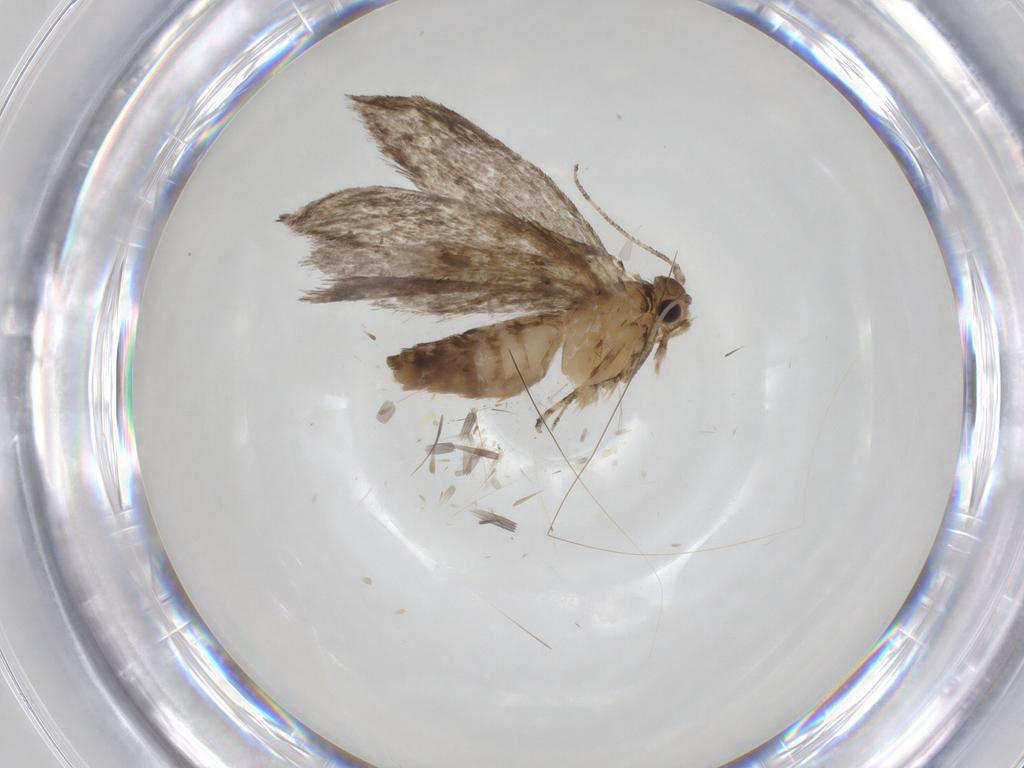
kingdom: Animalia
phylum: Arthropoda
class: Insecta
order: Lepidoptera
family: Tineidae
